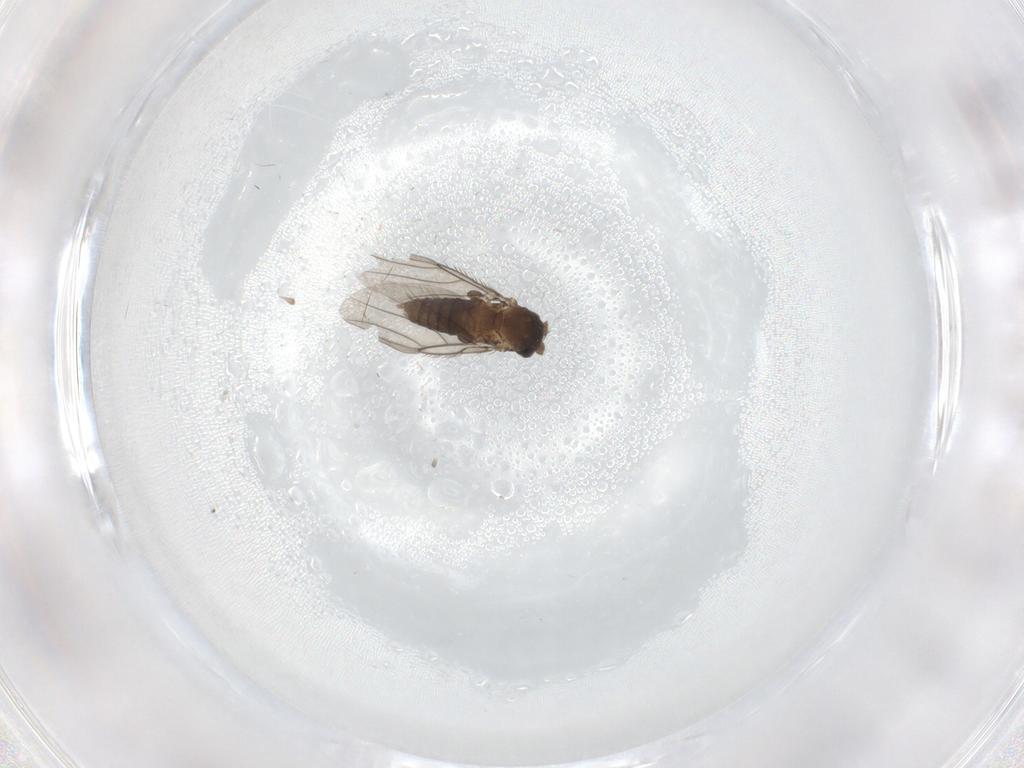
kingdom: Animalia
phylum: Arthropoda
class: Insecta
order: Diptera
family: Phoridae
